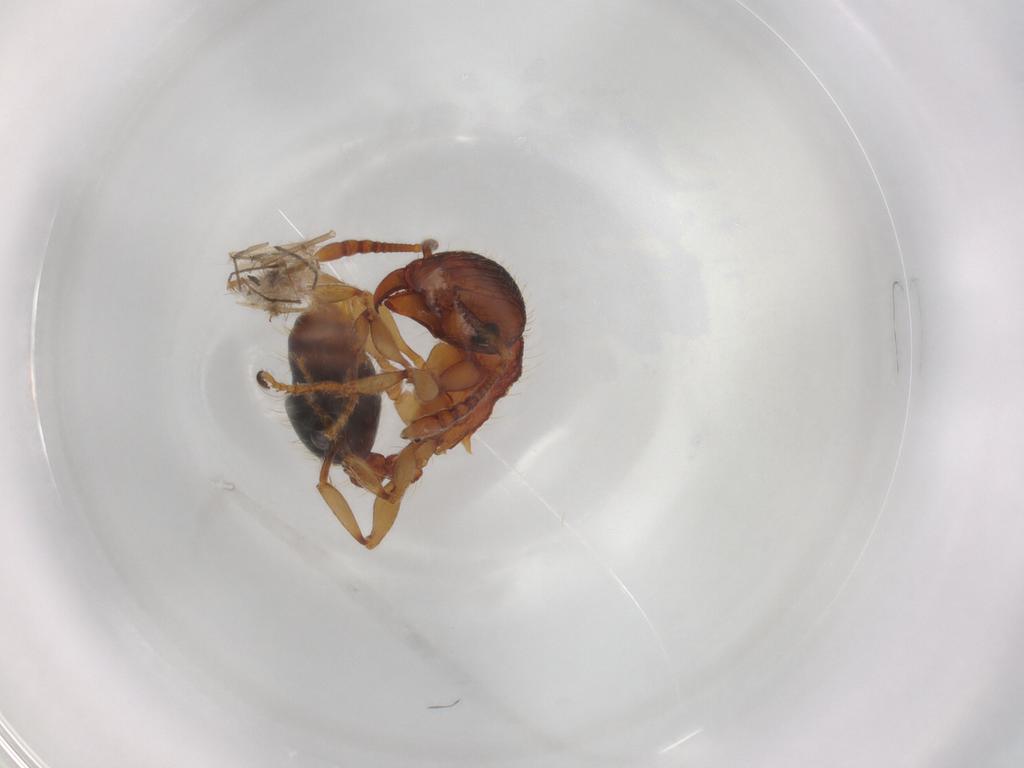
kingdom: Animalia
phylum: Arthropoda
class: Insecta
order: Hymenoptera
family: Formicidae
